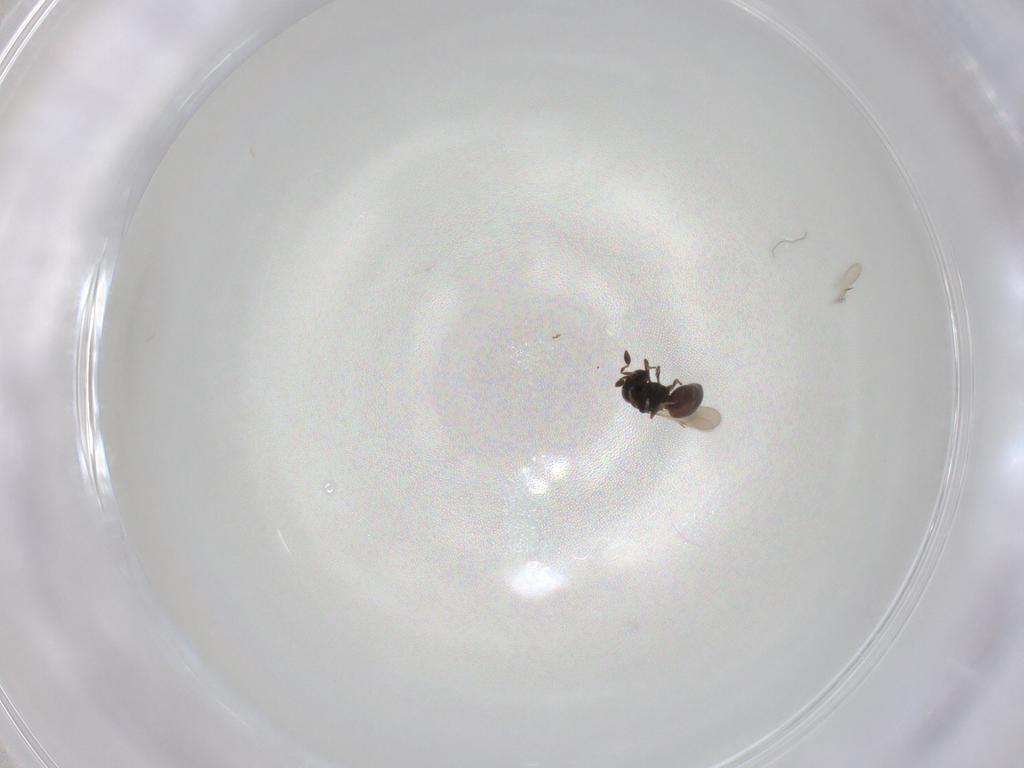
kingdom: Animalia
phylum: Arthropoda
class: Insecta
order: Hymenoptera
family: Scelionidae
